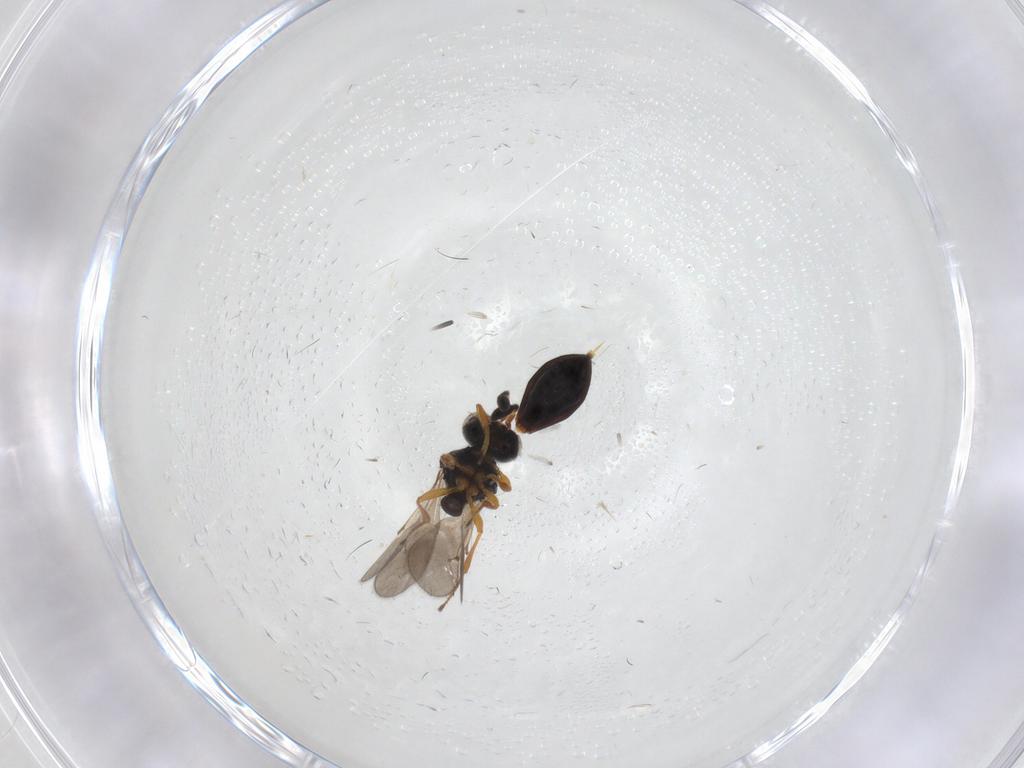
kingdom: Animalia
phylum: Arthropoda
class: Insecta
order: Hymenoptera
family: Scelionidae
